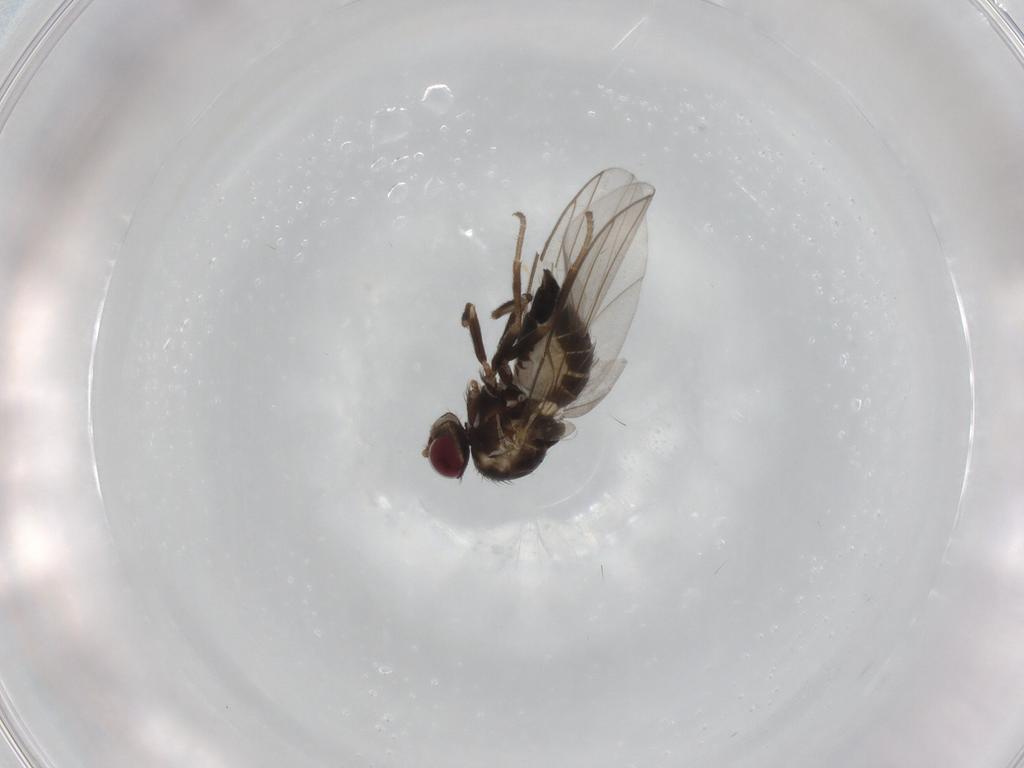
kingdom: Animalia
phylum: Arthropoda
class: Insecta
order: Diptera
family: Agromyzidae
